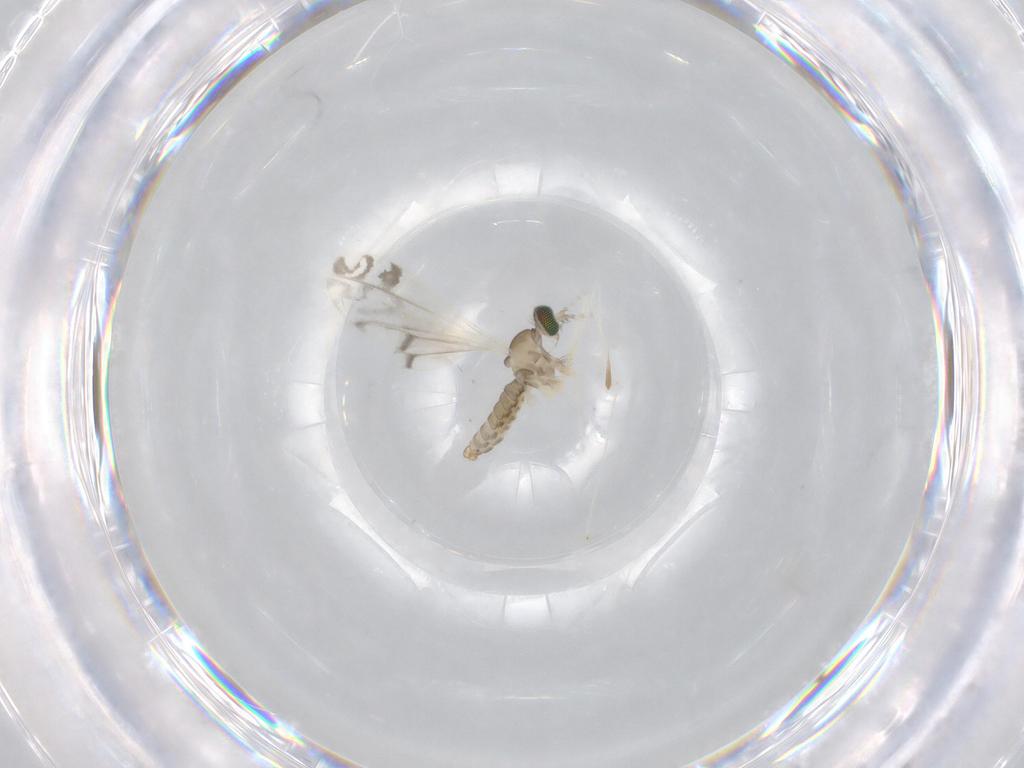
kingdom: Animalia
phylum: Arthropoda
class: Insecta
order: Diptera
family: Cecidomyiidae
